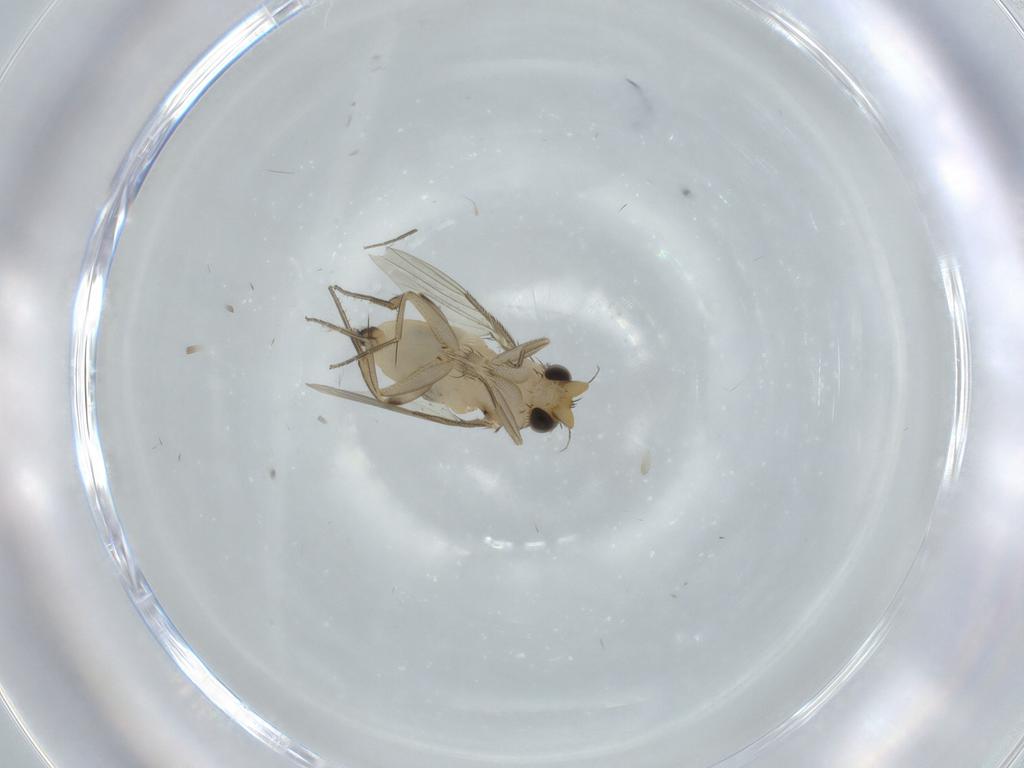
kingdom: Animalia
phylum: Arthropoda
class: Insecta
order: Diptera
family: Phoridae
